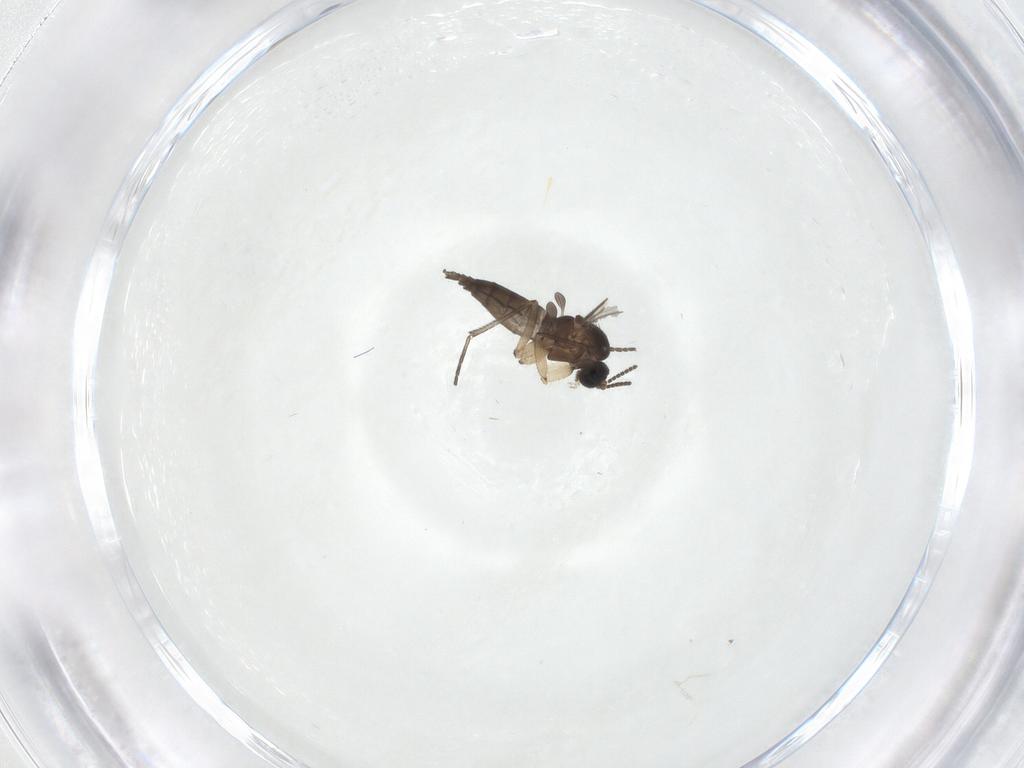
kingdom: Animalia
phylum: Arthropoda
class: Insecta
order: Diptera
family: Sciaridae
